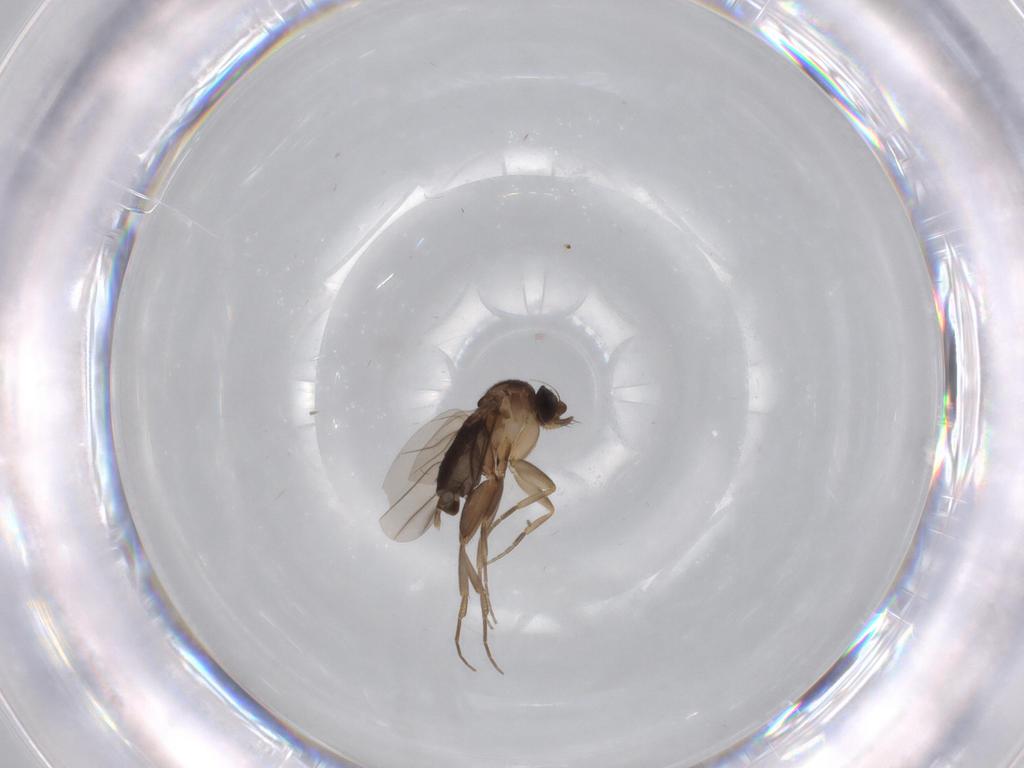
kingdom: Animalia
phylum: Arthropoda
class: Insecta
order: Diptera
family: Phoridae
